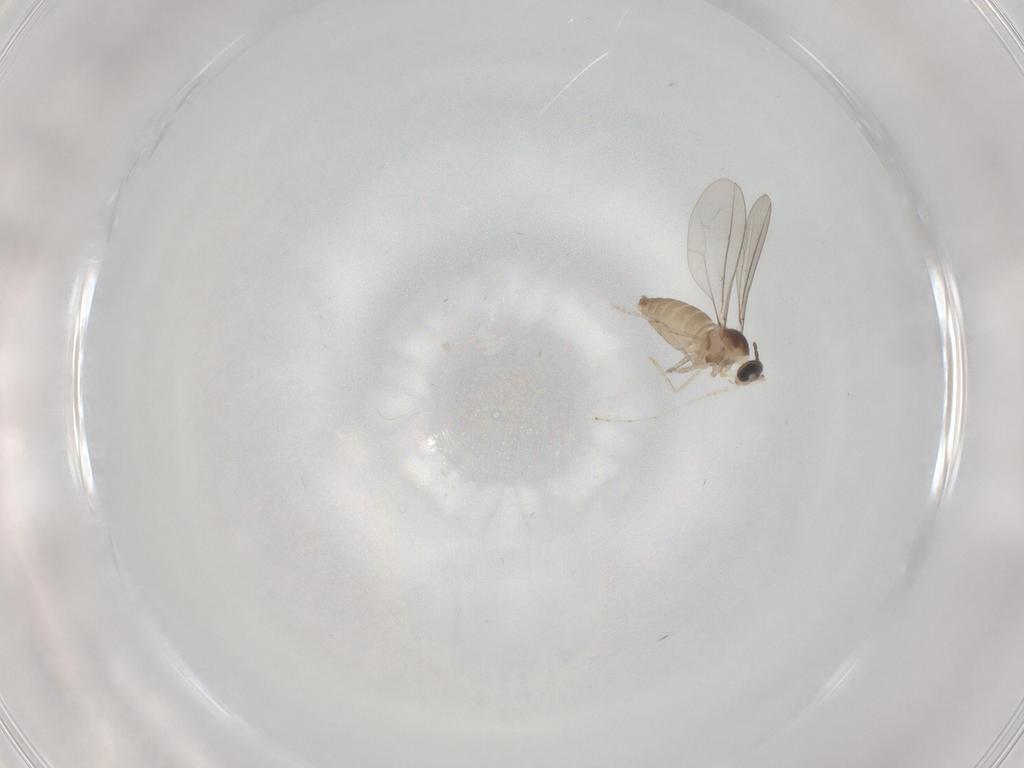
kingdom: Animalia
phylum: Arthropoda
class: Insecta
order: Diptera
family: Cecidomyiidae
